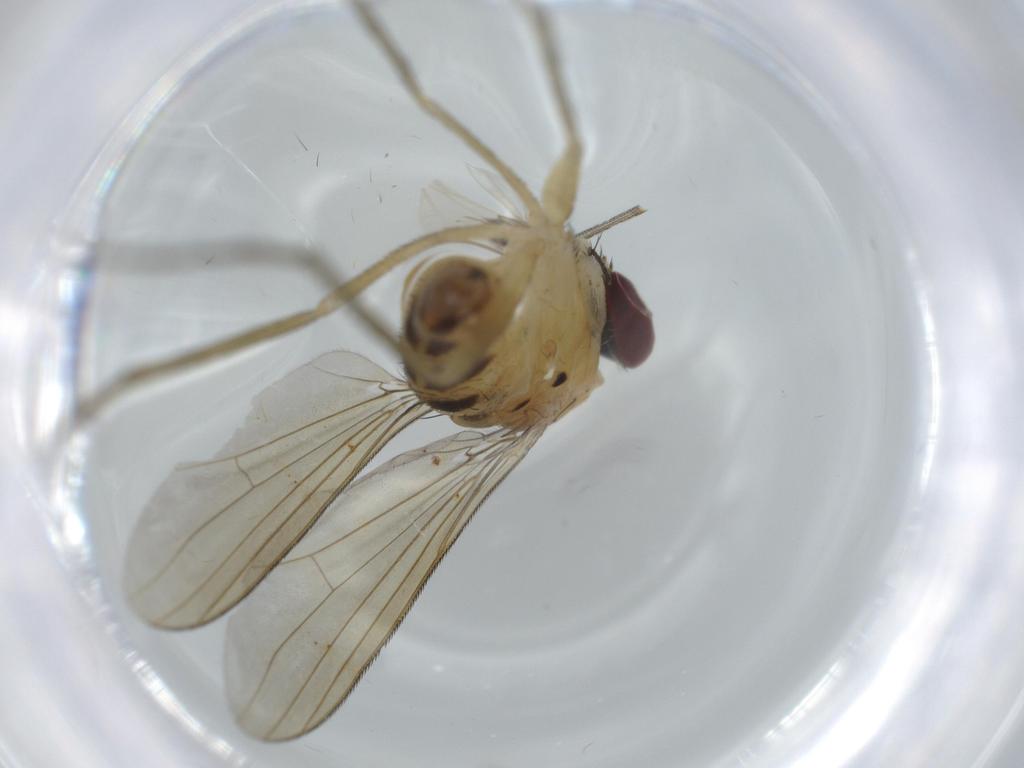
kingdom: Animalia
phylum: Arthropoda
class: Insecta
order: Diptera
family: Dolichopodidae
